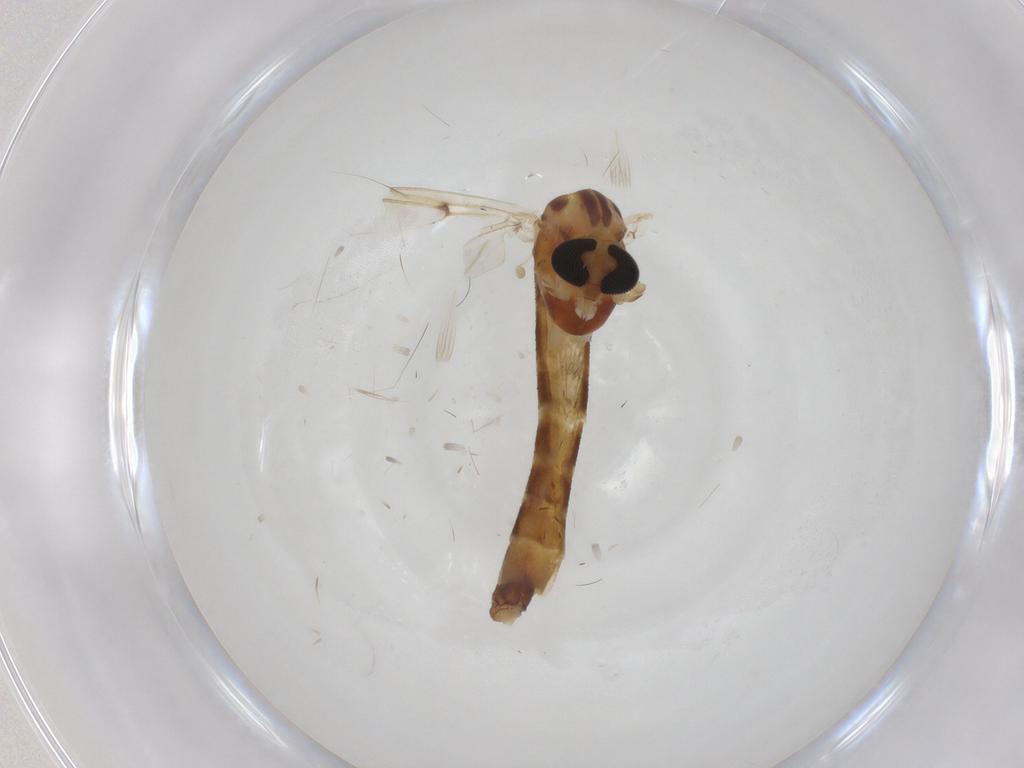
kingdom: Animalia
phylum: Arthropoda
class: Insecta
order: Diptera
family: Chironomidae
